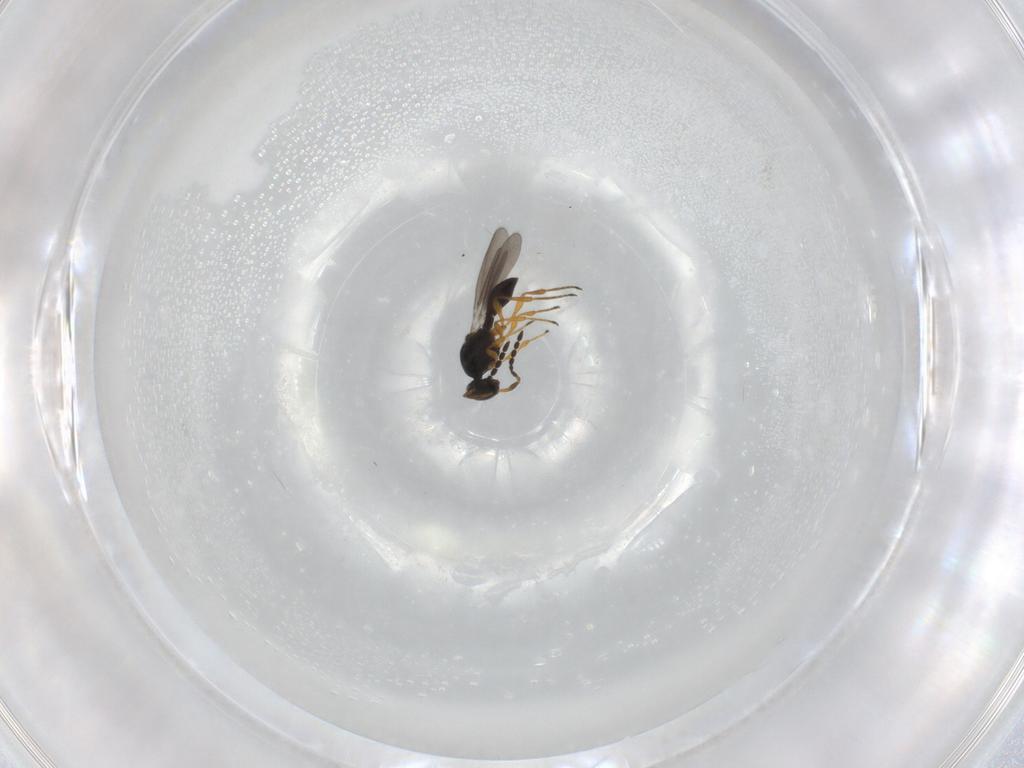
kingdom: Animalia
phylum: Arthropoda
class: Insecta
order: Hymenoptera
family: Platygastridae
